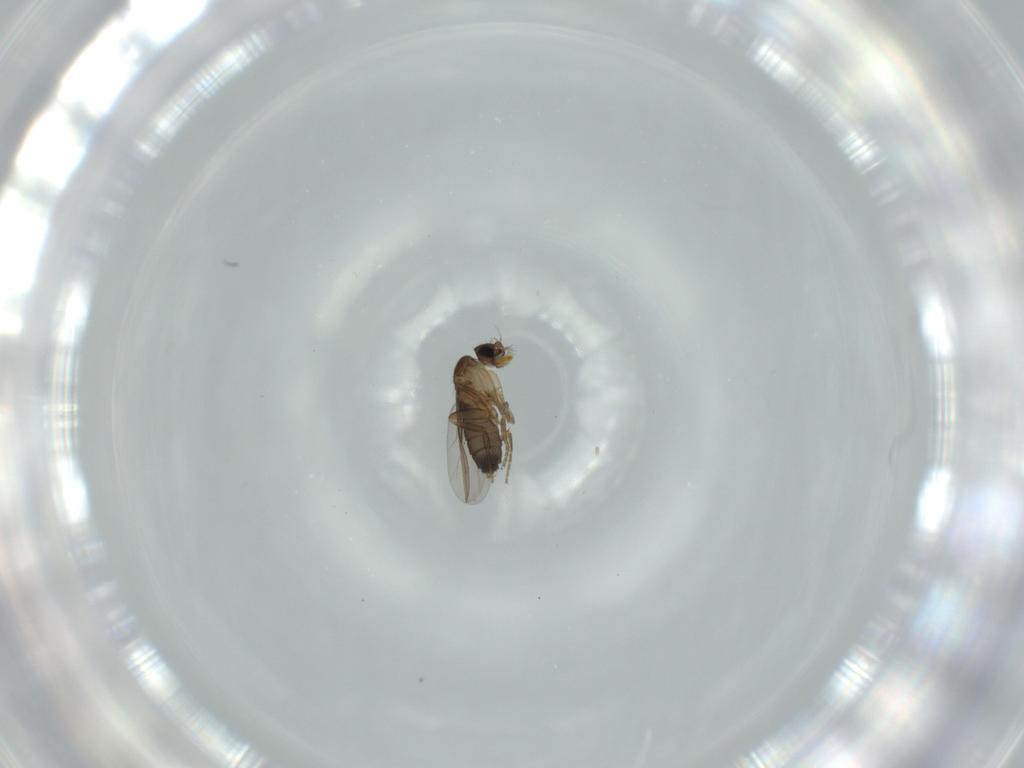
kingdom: Animalia
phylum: Arthropoda
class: Insecta
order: Diptera
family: Phoridae
